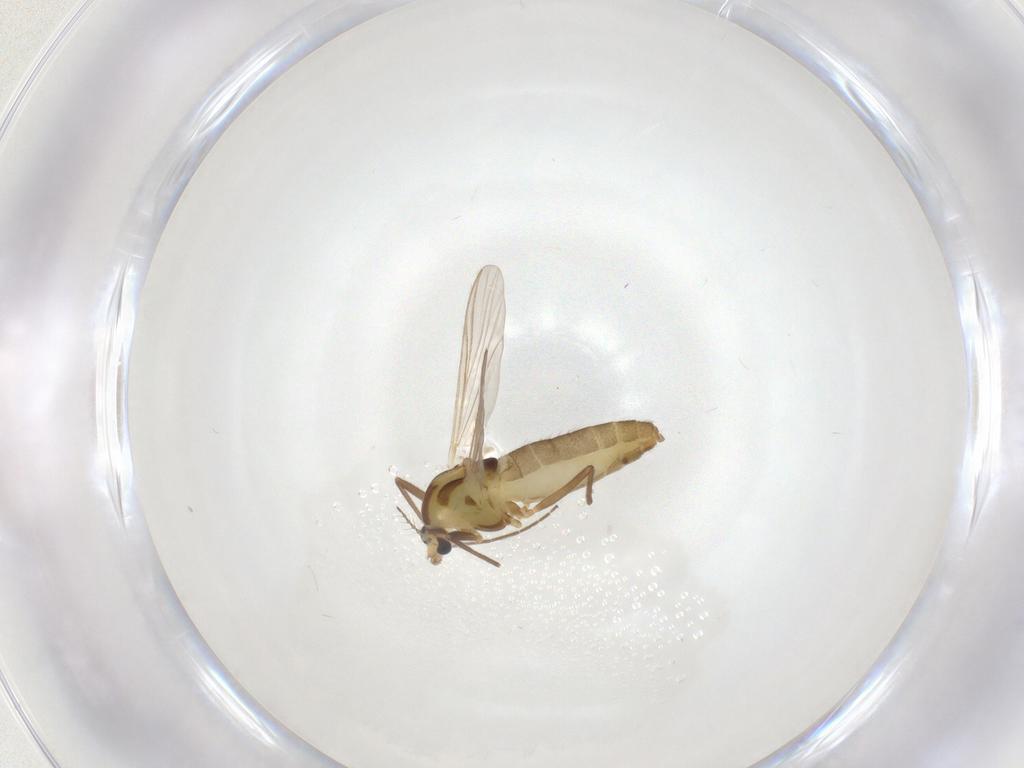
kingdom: Animalia
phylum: Arthropoda
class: Insecta
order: Diptera
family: Chironomidae
